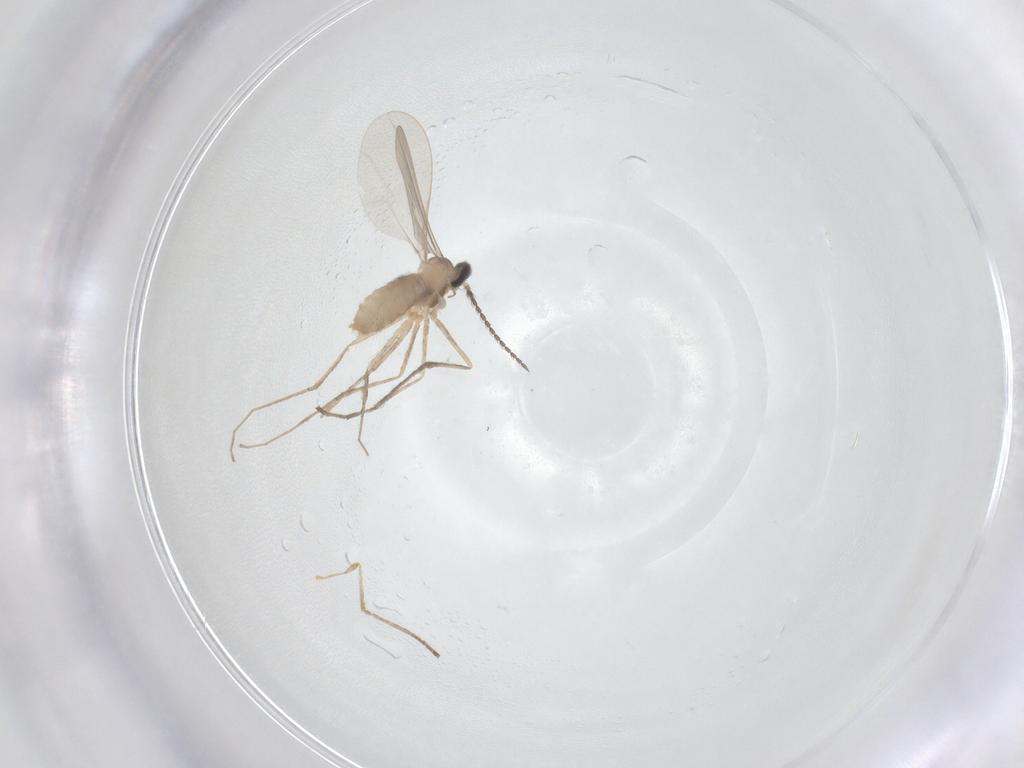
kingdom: Animalia
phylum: Arthropoda
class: Insecta
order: Diptera
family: Cecidomyiidae
